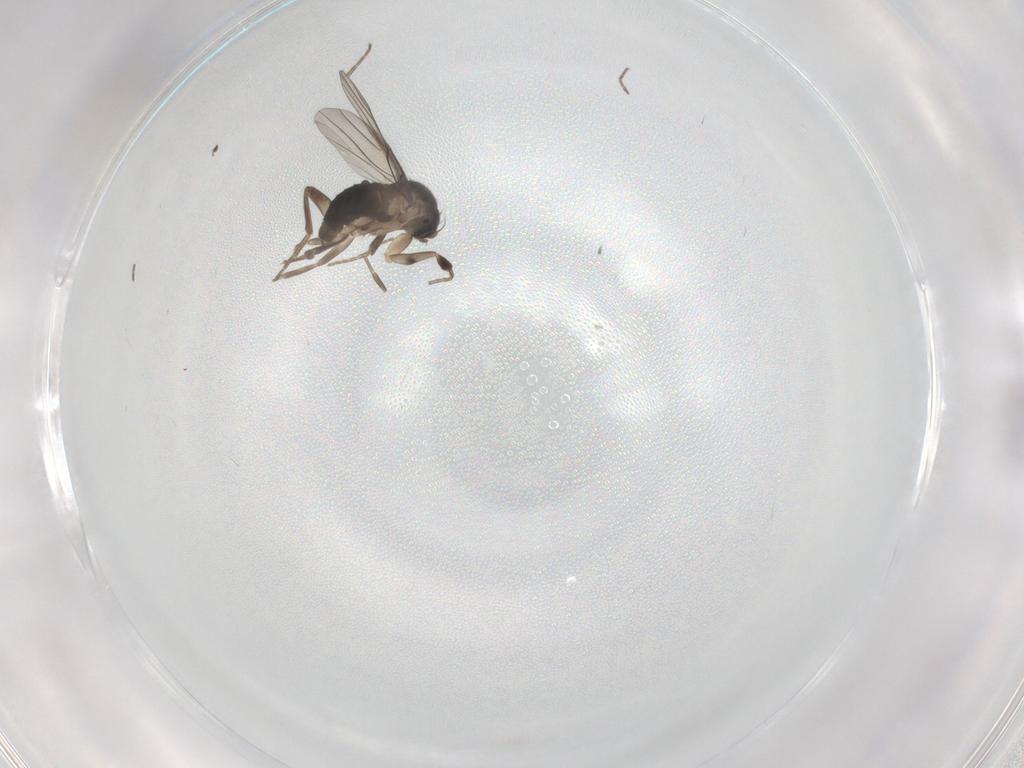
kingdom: Animalia
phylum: Arthropoda
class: Insecta
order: Diptera
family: Phoridae
